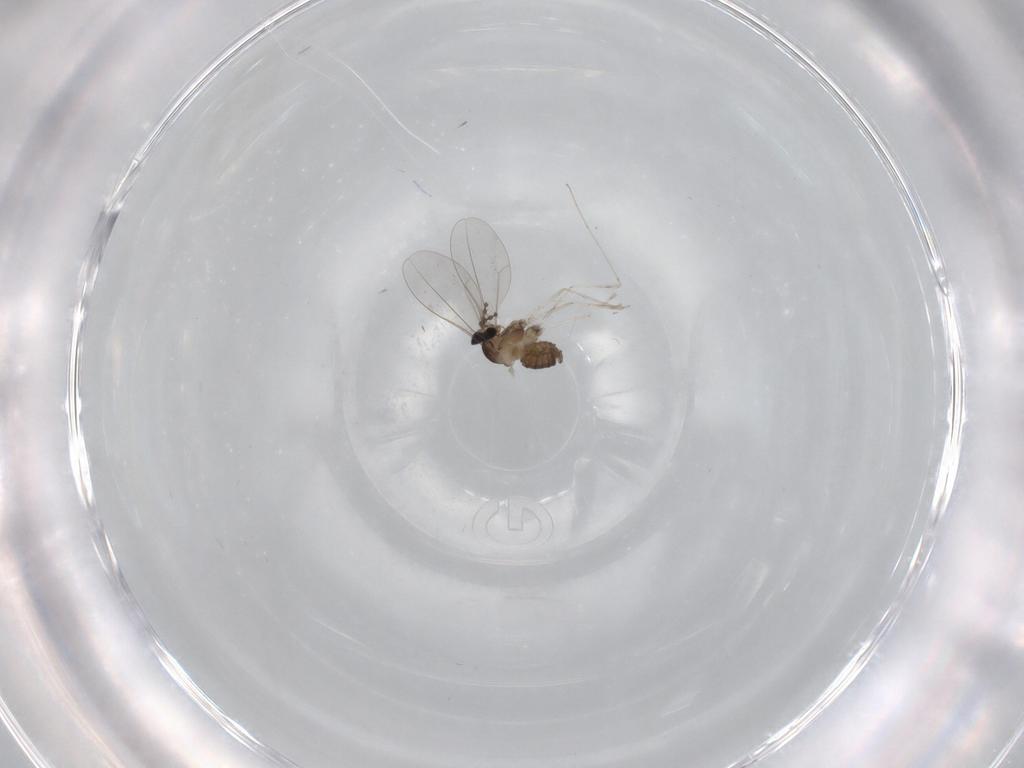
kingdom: Animalia
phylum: Arthropoda
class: Insecta
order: Diptera
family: Cecidomyiidae
